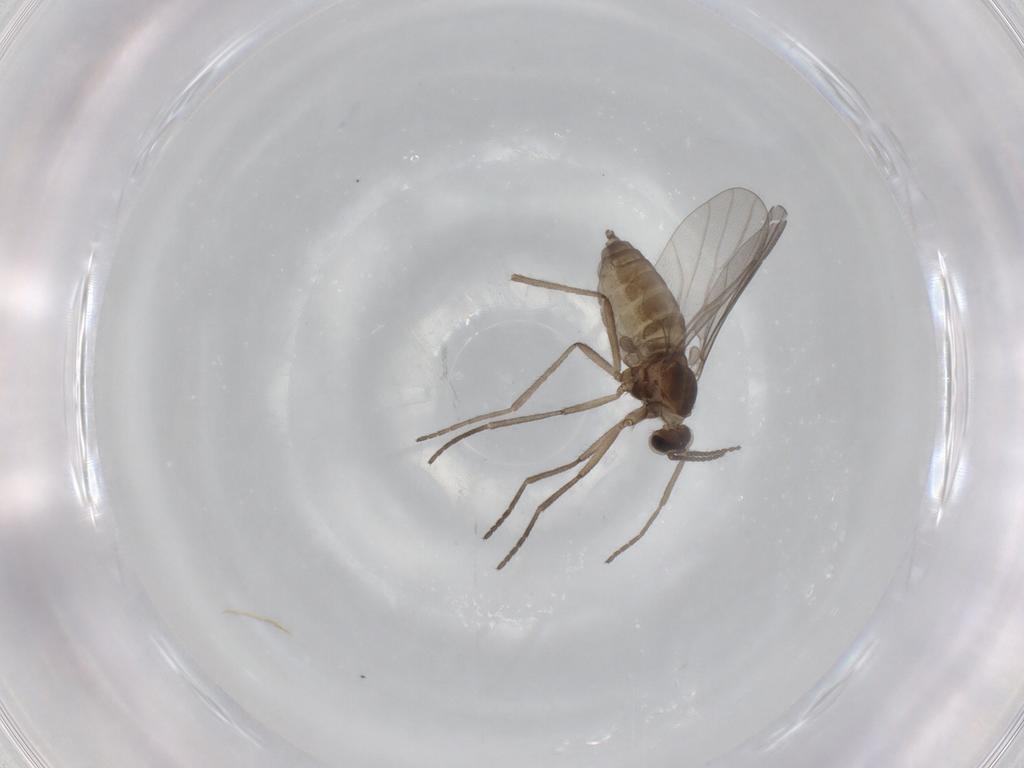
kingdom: Animalia
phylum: Arthropoda
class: Insecta
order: Diptera
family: Cecidomyiidae
